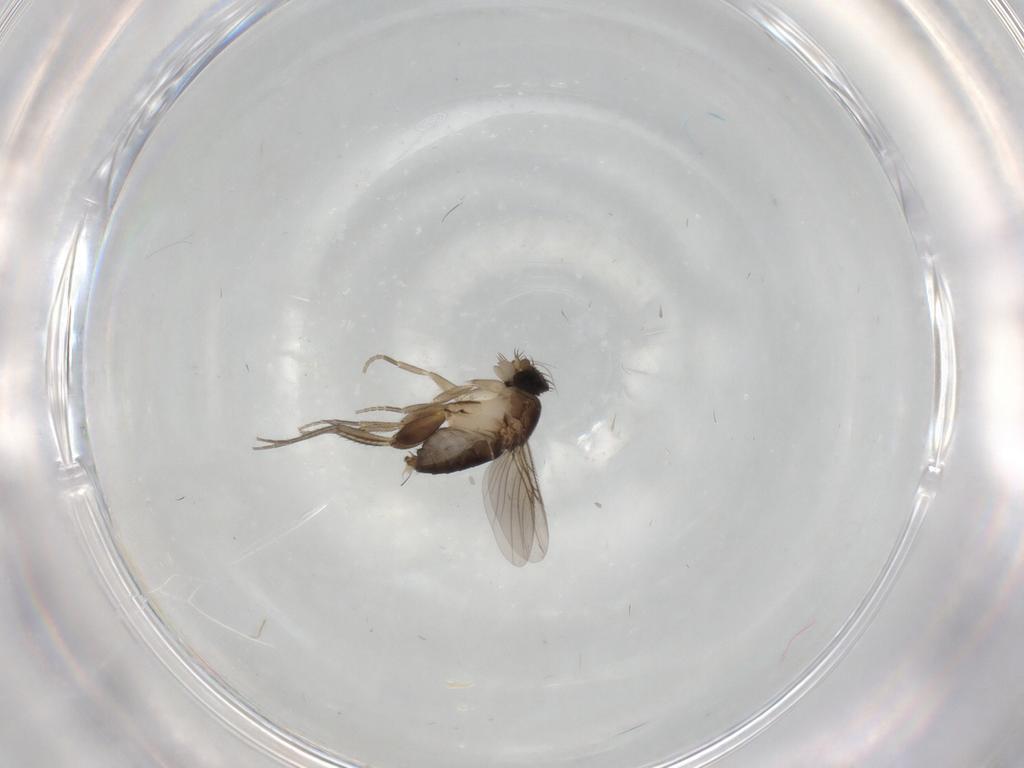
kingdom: Animalia
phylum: Arthropoda
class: Insecta
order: Diptera
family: Phoridae
